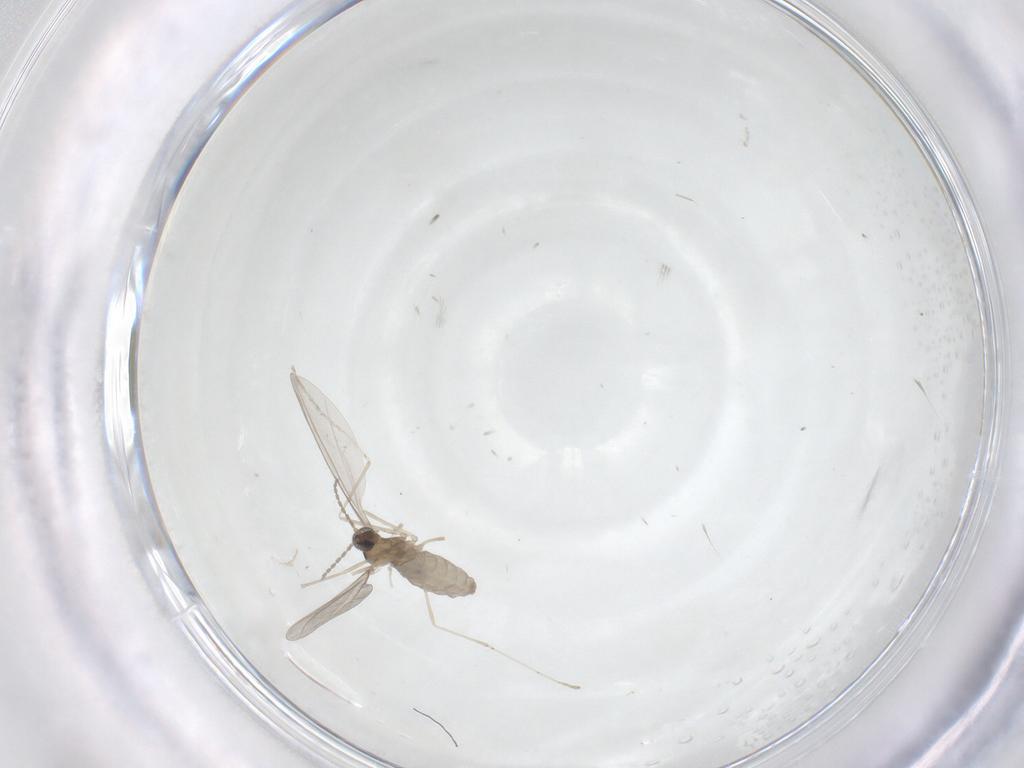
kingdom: Animalia
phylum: Arthropoda
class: Insecta
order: Diptera
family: Cecidomyiidae
